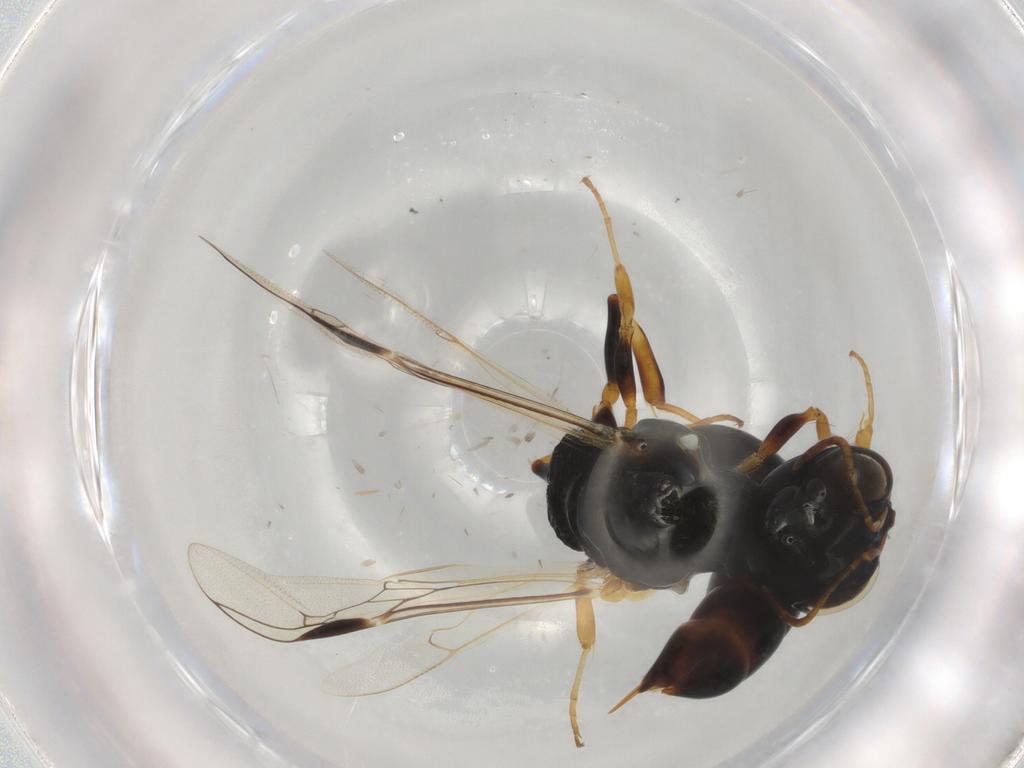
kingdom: Animalia
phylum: Arthropoda
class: Insecta
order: Hymenoptera
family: Pemphredonidae
